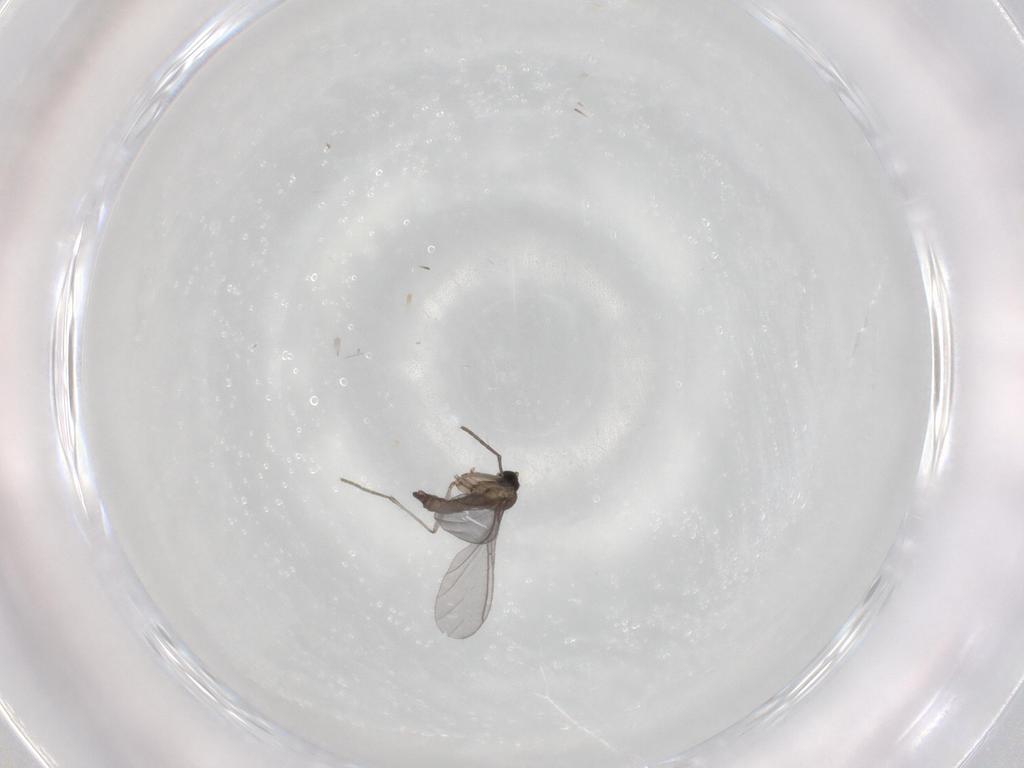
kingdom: Animalia
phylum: Arthropoda
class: Insecta
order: Diptera
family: Sciaridae
